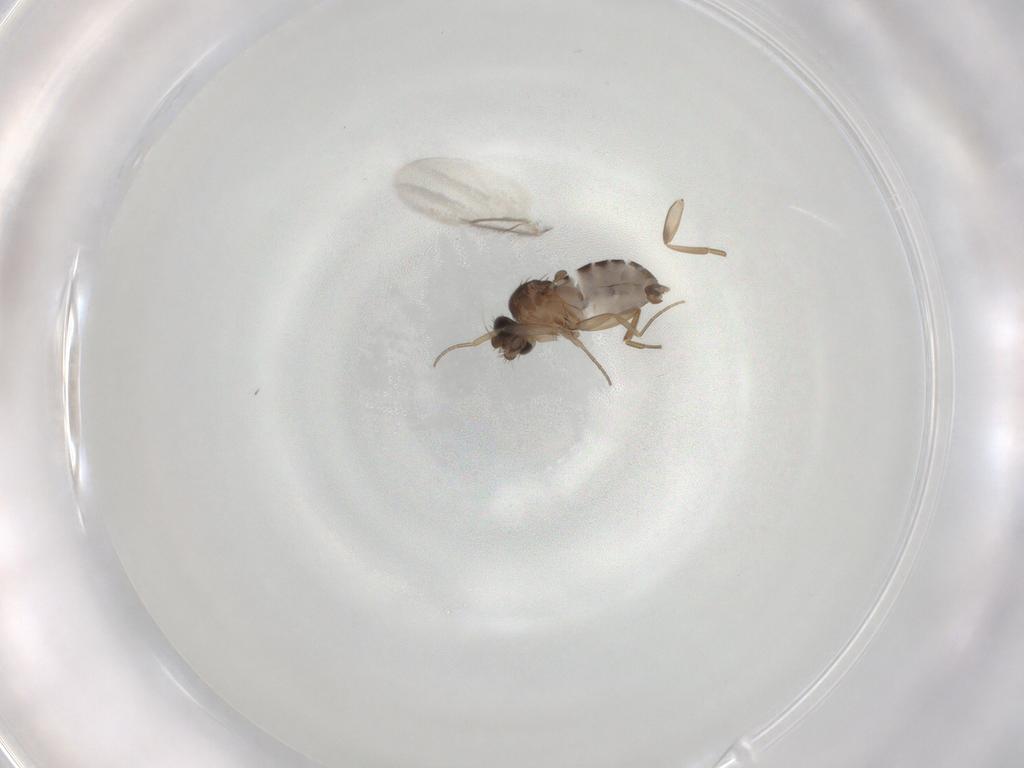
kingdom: Animalia
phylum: Arthropoda
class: Insecta
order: Diptera
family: Phoridae
